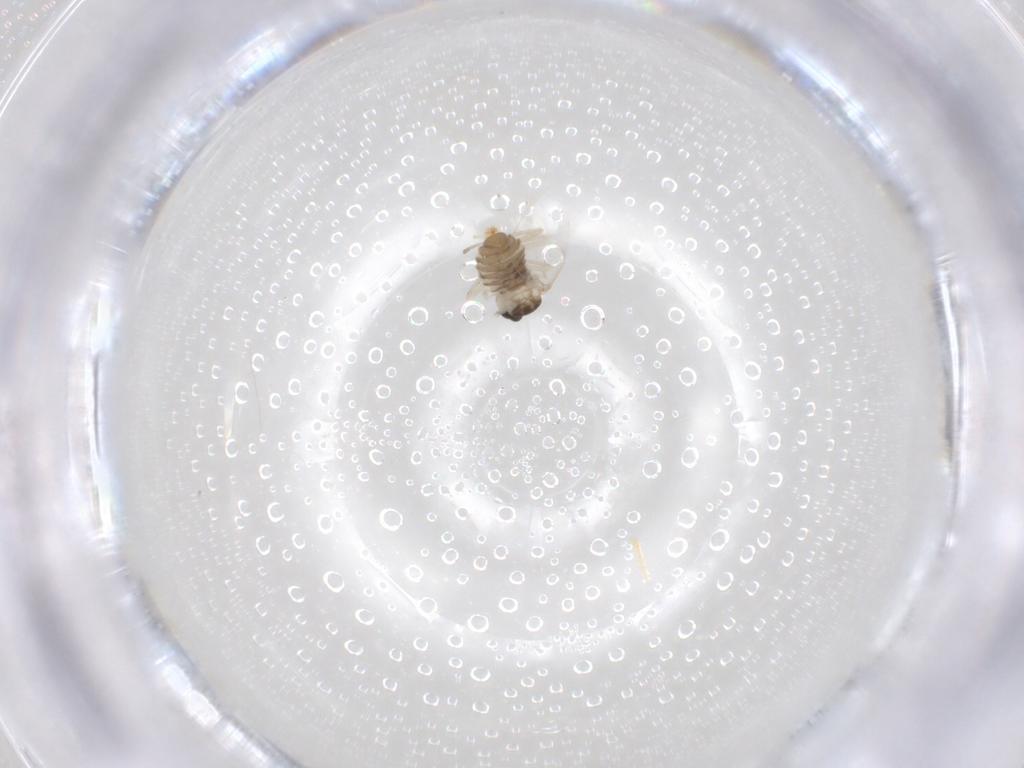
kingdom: Animalia
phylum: Arthropoda
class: Insecta
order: Diptera
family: Cecidomyiidae
